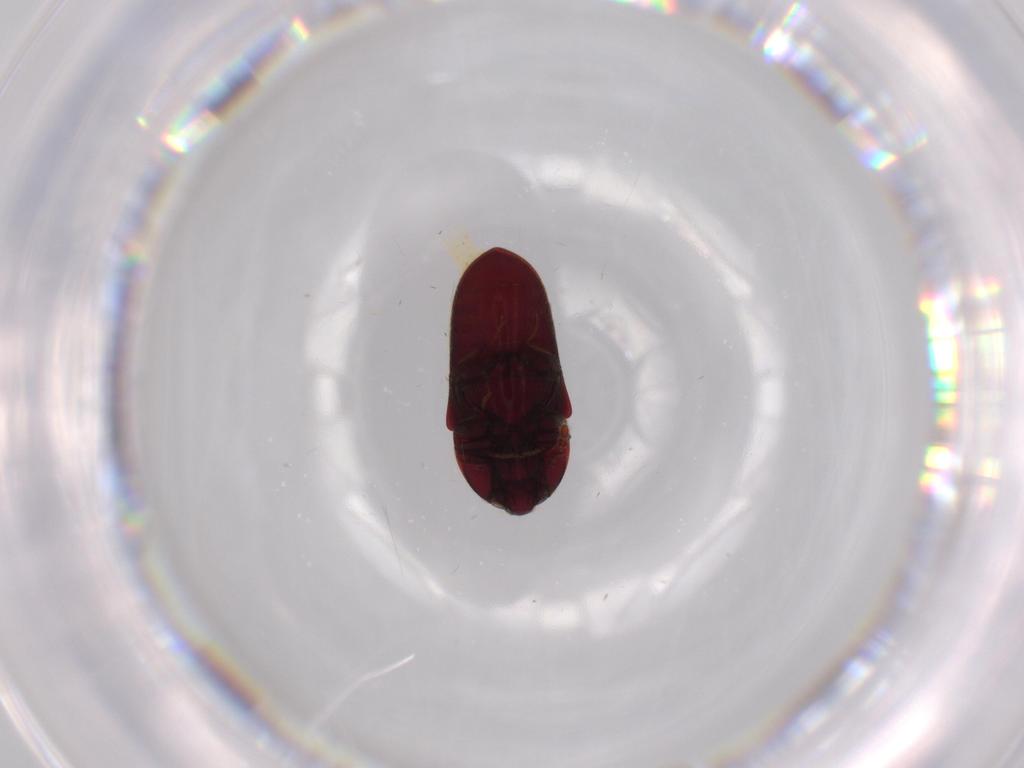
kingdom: Animalia
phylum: Arthropoda
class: Insecta
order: Coleoptera
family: Throscidae
